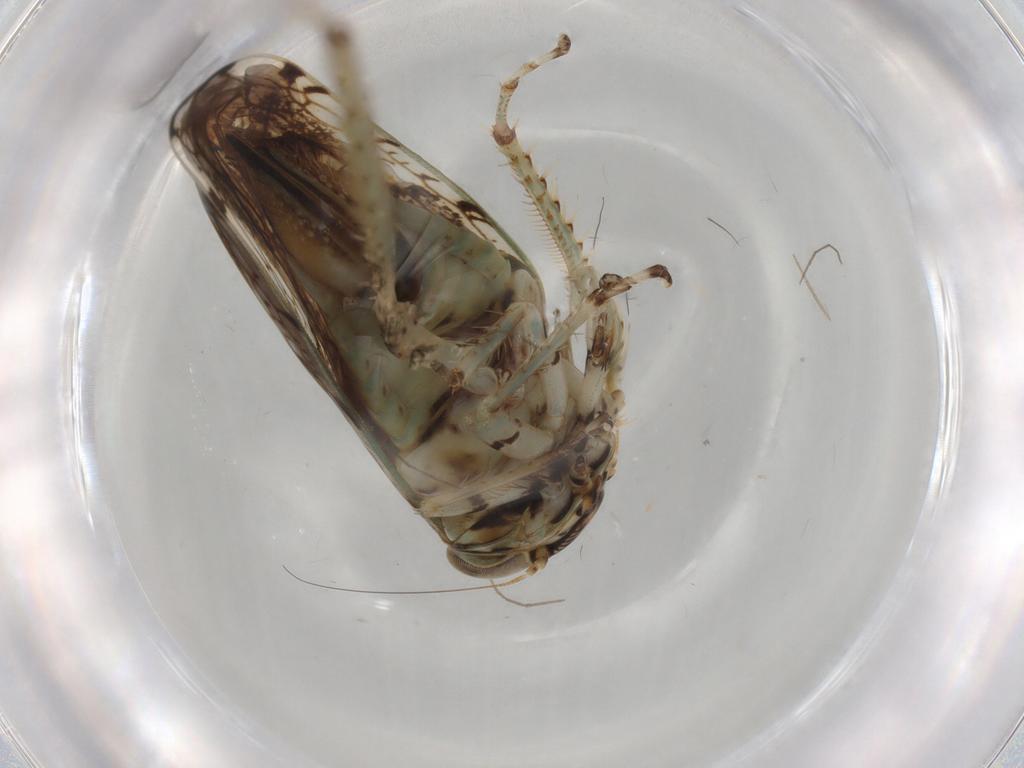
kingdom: Animalia
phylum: Arthropoda
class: Insecta
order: Hemiptera
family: Cicadellidae
